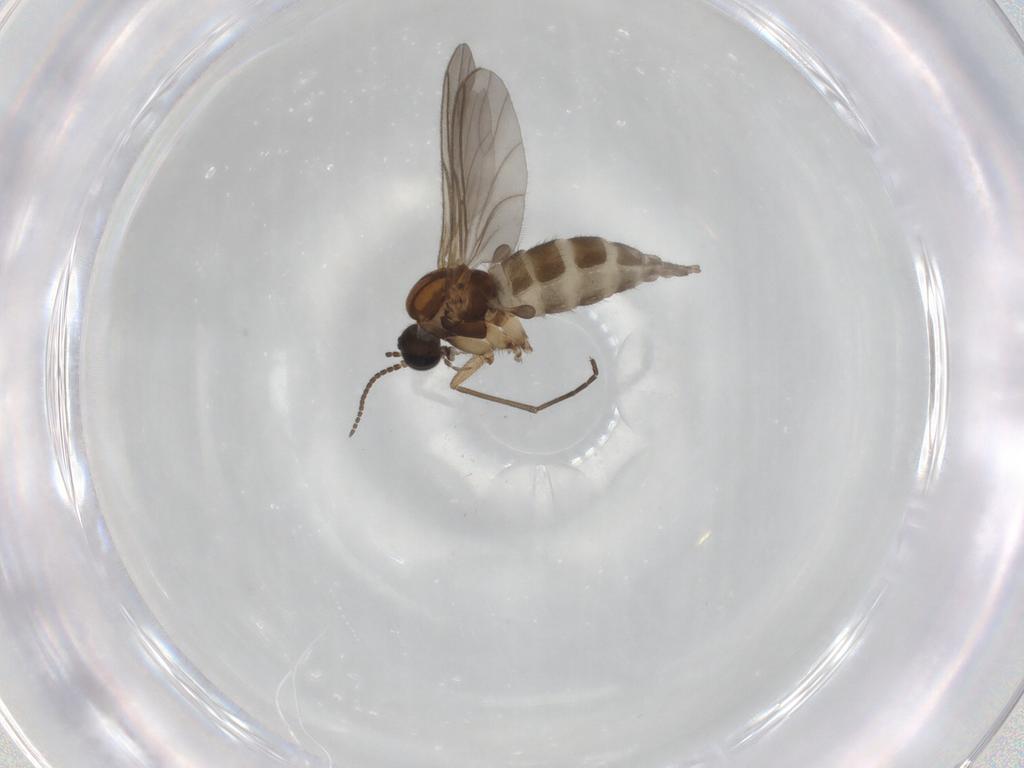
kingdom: Animalia
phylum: Arthropoda
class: Insecta
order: Diptera
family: Sciaridae
